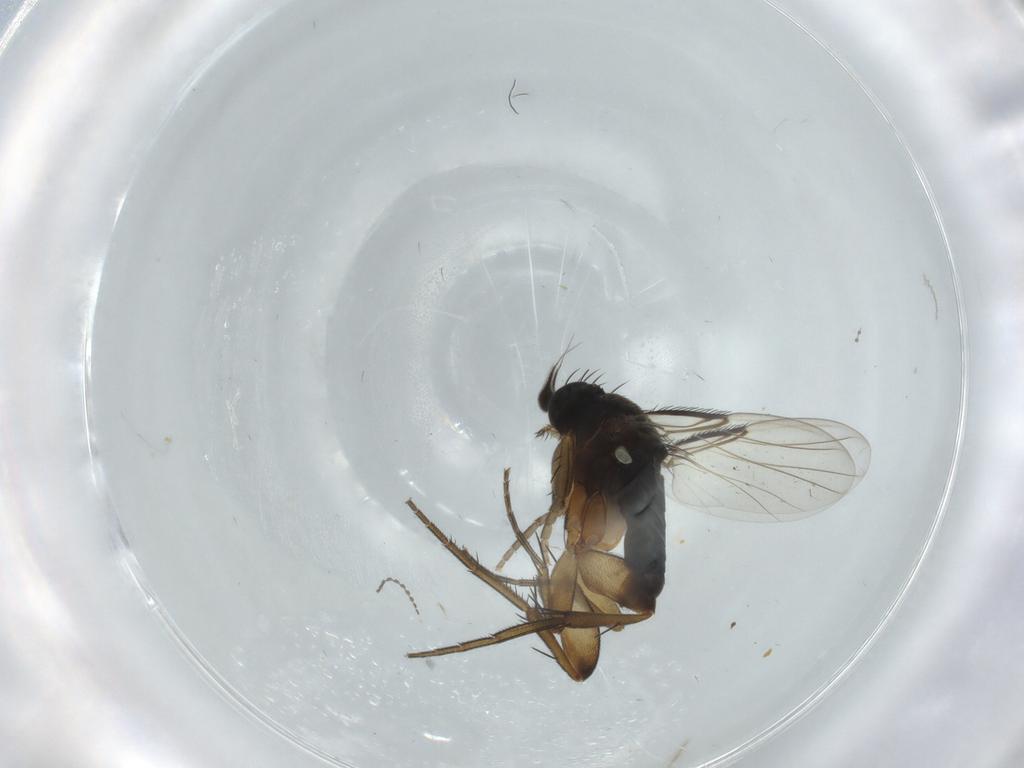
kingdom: Animalia
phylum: Arthropoda
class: Insecta
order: Diptera
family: Phoridae
